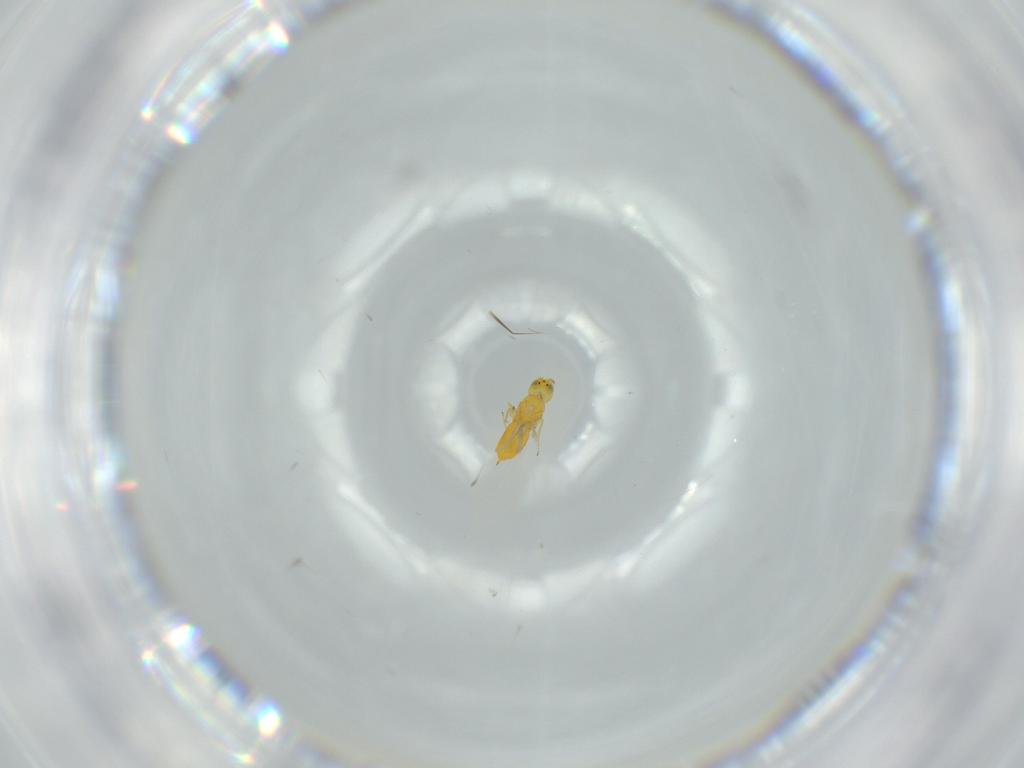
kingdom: Animalia
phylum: Arthropoda
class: Insecta
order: Hymenoptera
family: Aphelinidae
